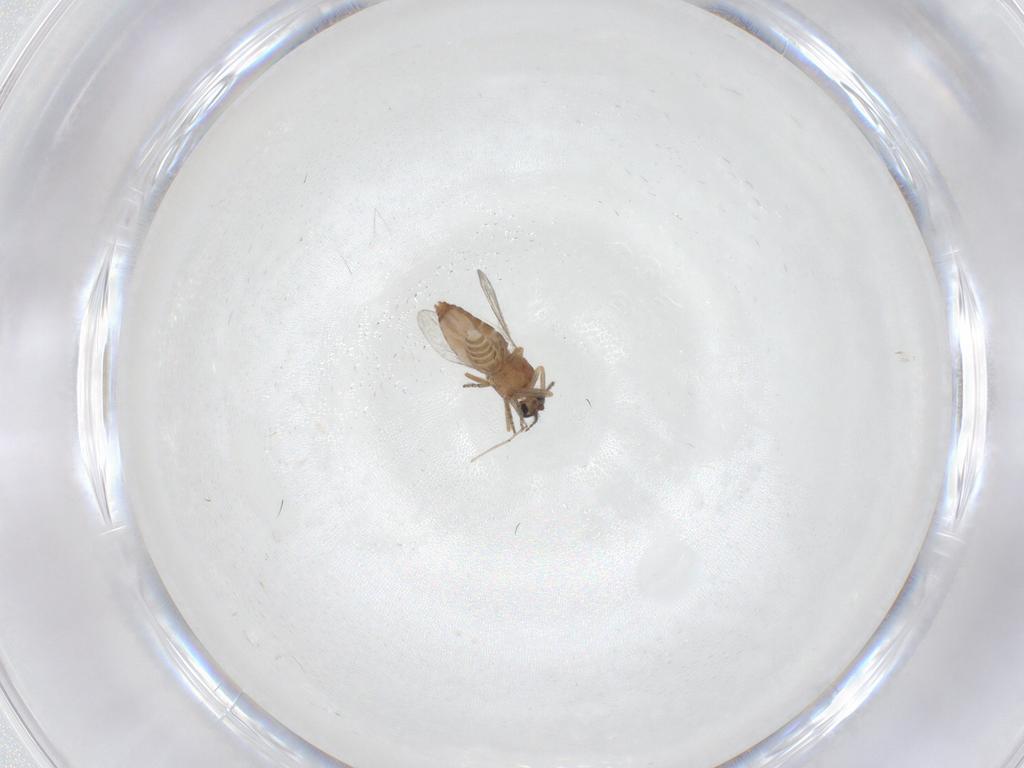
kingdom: Animalia
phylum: Arthropoda
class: Insecta
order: Diptera
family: Ceratopogonidae
